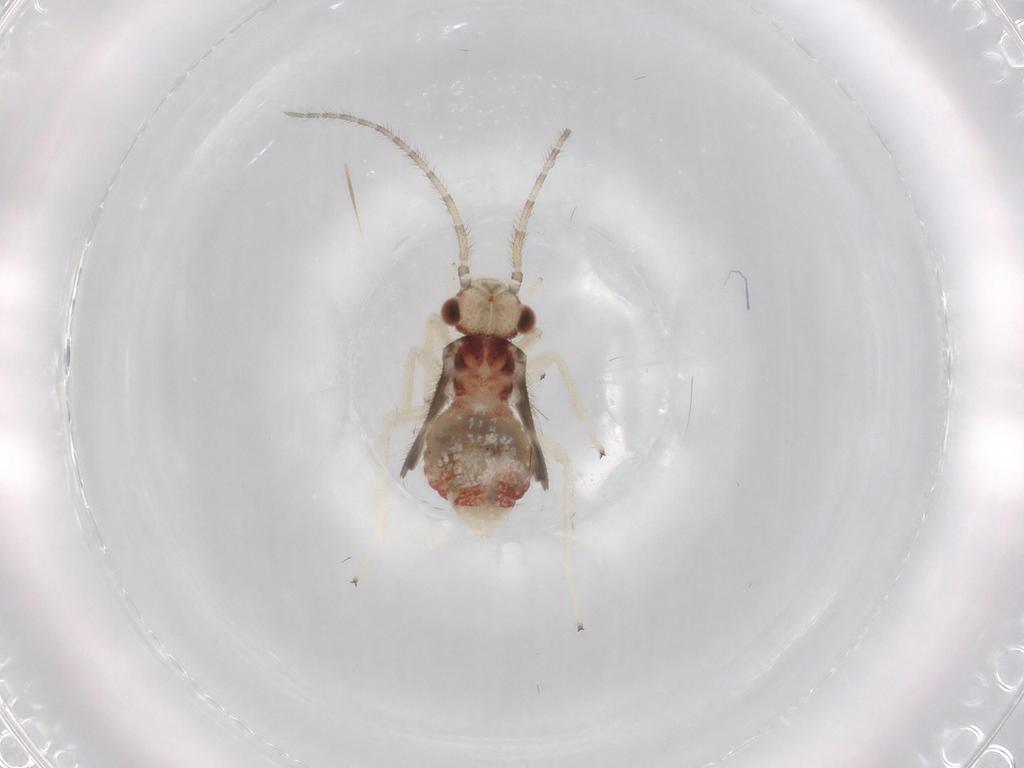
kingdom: Animalia
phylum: Arthropoda
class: Insecta
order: Psocodea
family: Amphipsocidae
